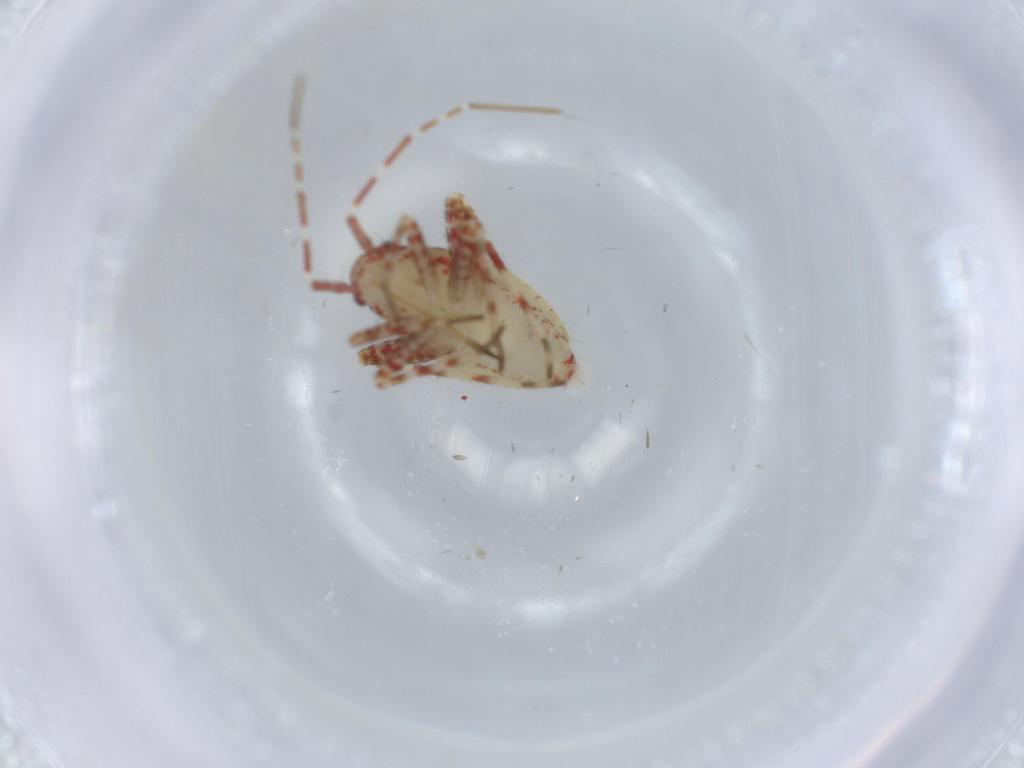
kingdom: Animalia
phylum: Arthropoda
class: Insecta
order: Hemiptera
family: Miridae
